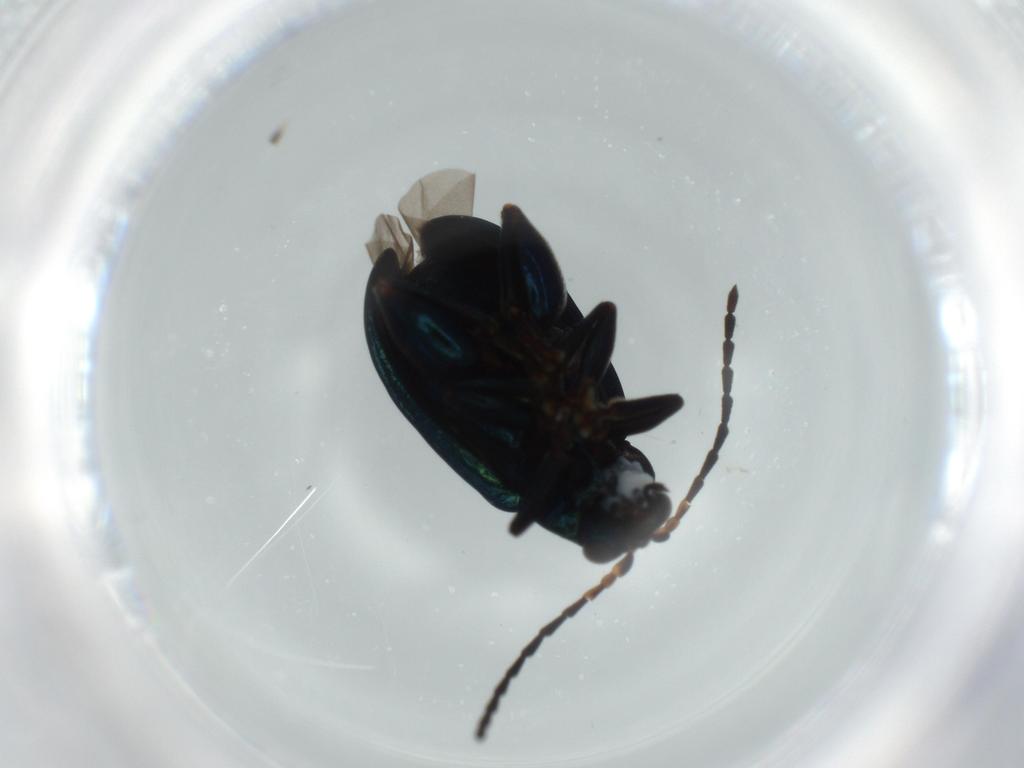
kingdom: Animalia
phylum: Arthropoda
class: Insecta
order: Coleoptera
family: Chrysomelidae
